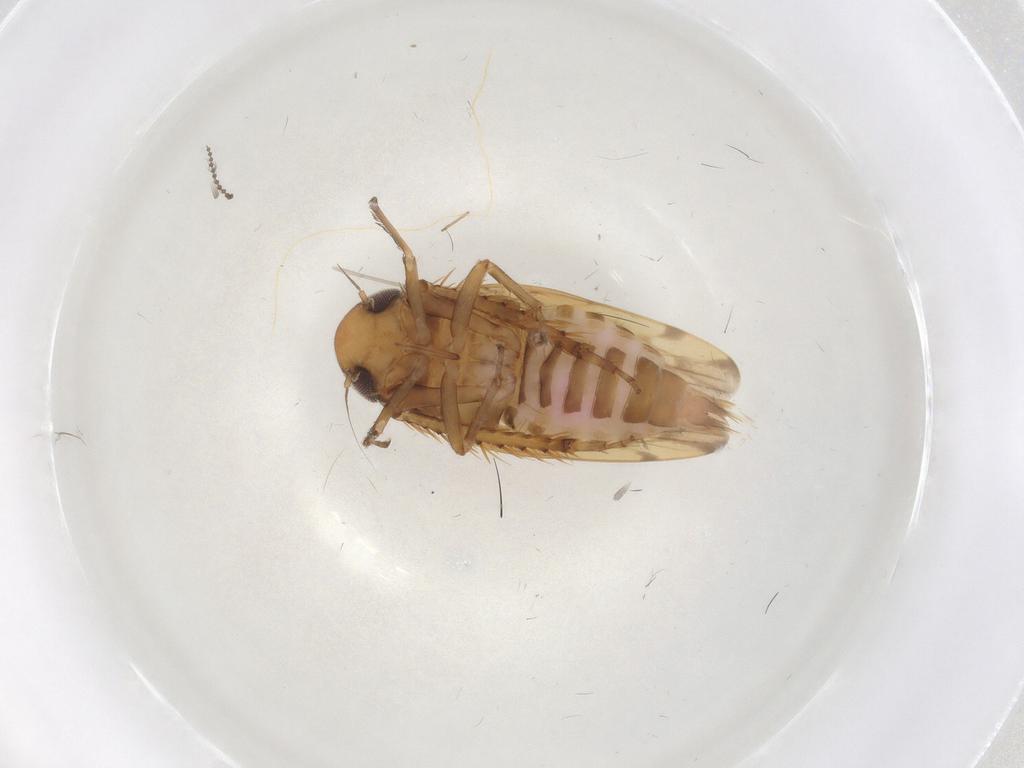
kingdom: Animalia
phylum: Arthropoda
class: Insecta
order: Hemiptera
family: Cicadellidae
